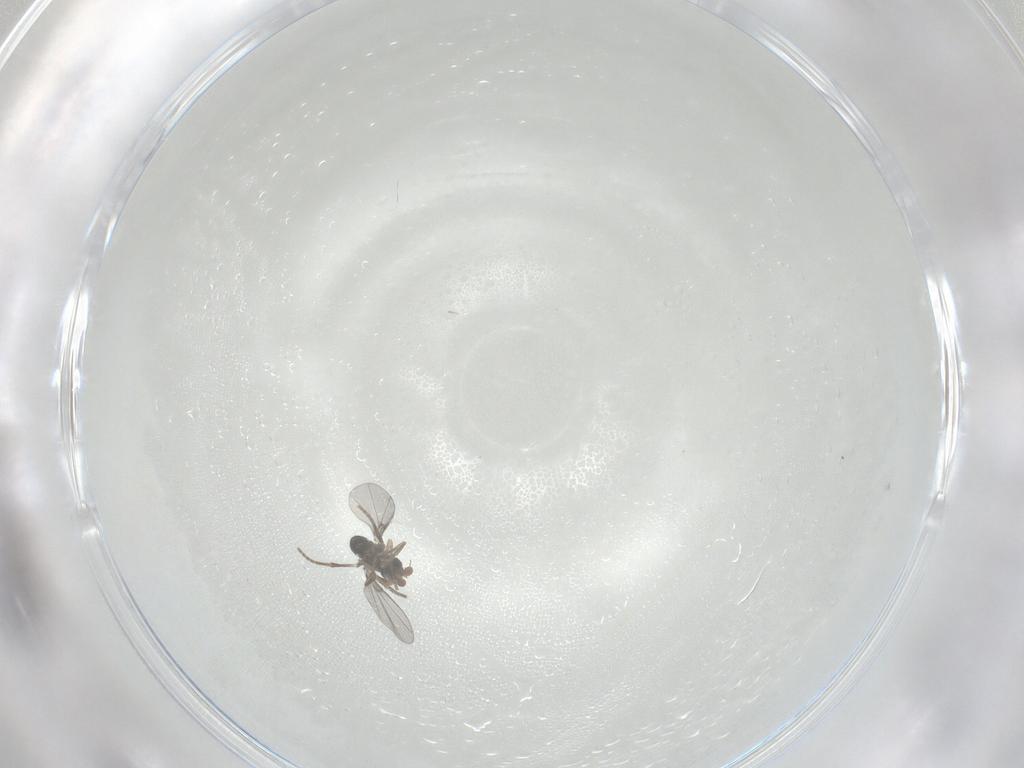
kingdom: Animalia
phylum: Arthropoda
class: Insecta
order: Diptera
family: Phoridae
